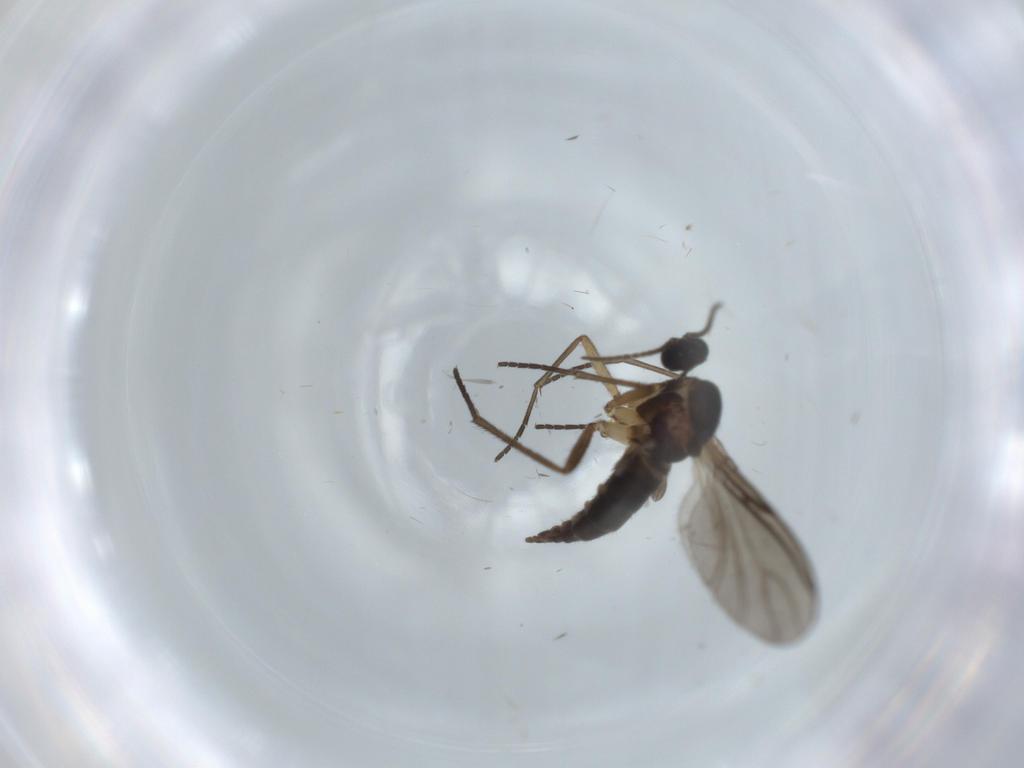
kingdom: Animalia
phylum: Arthropoda
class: Insecta
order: Diptera
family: Sciaridae
